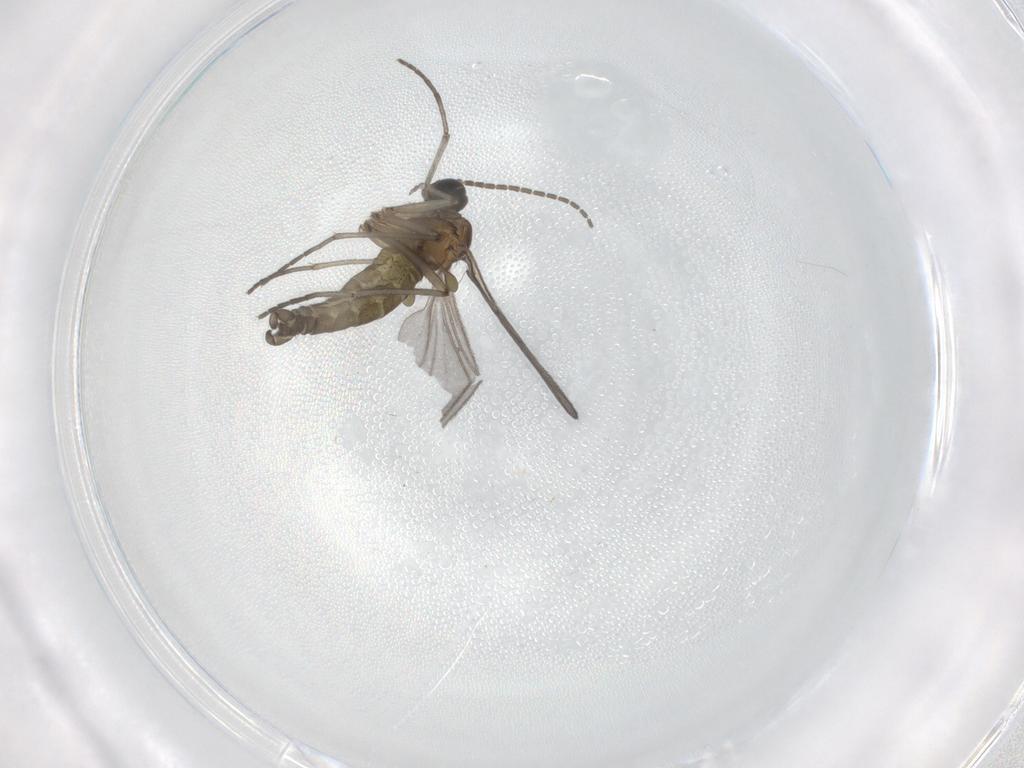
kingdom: Animalia
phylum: Arthropoda
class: Insecta
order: Diptera
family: Sciaridae
